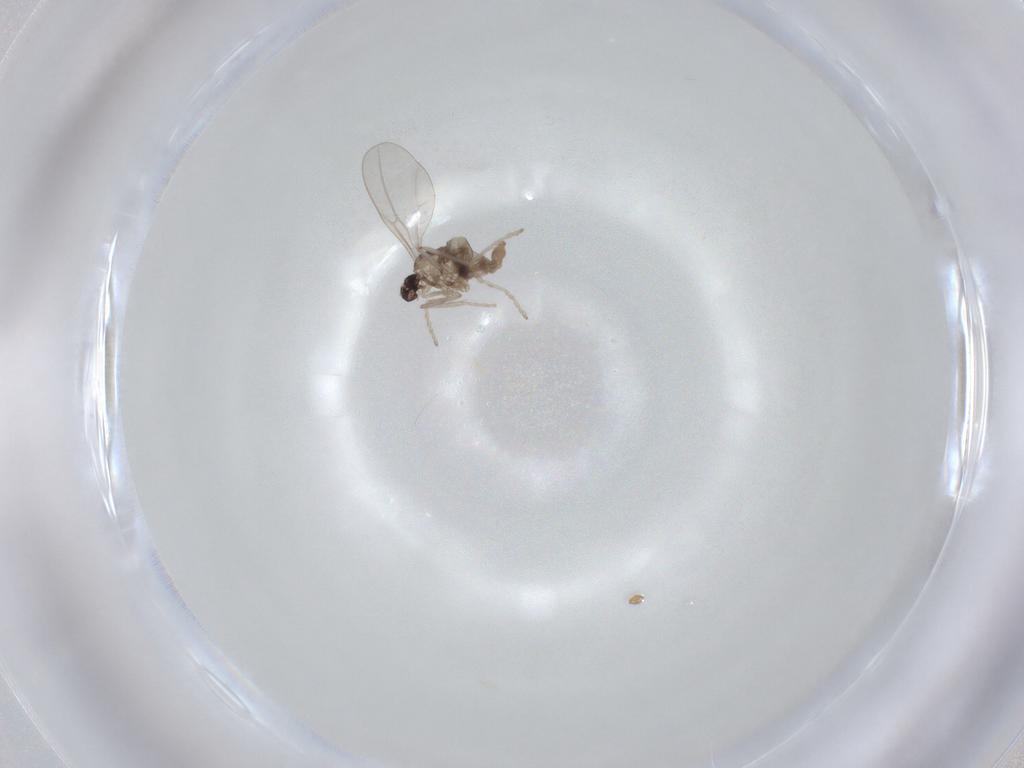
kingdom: Animalia
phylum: Arthropoda
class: Insecta
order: Diptera
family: Cecidomyiidae
